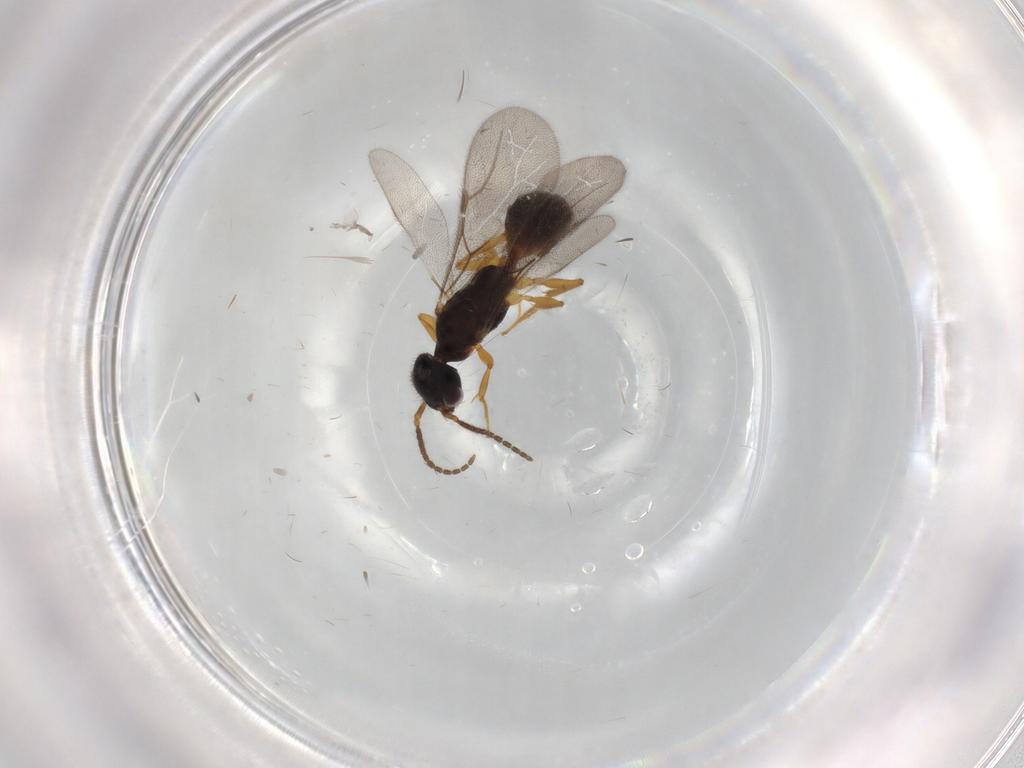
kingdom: Animalia
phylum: Arthropoda
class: Insecta
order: Hymenoptera
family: Bethylidae
